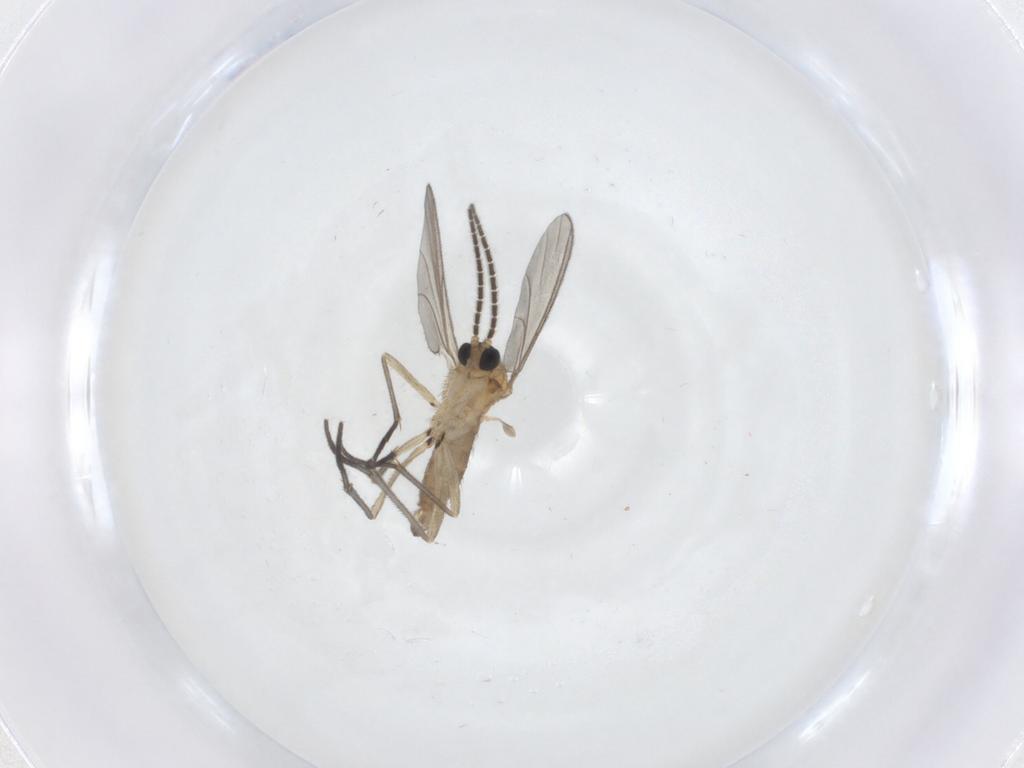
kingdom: Animalia
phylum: Arthropoda
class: Insecta
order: Diptera
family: Sciaridae
